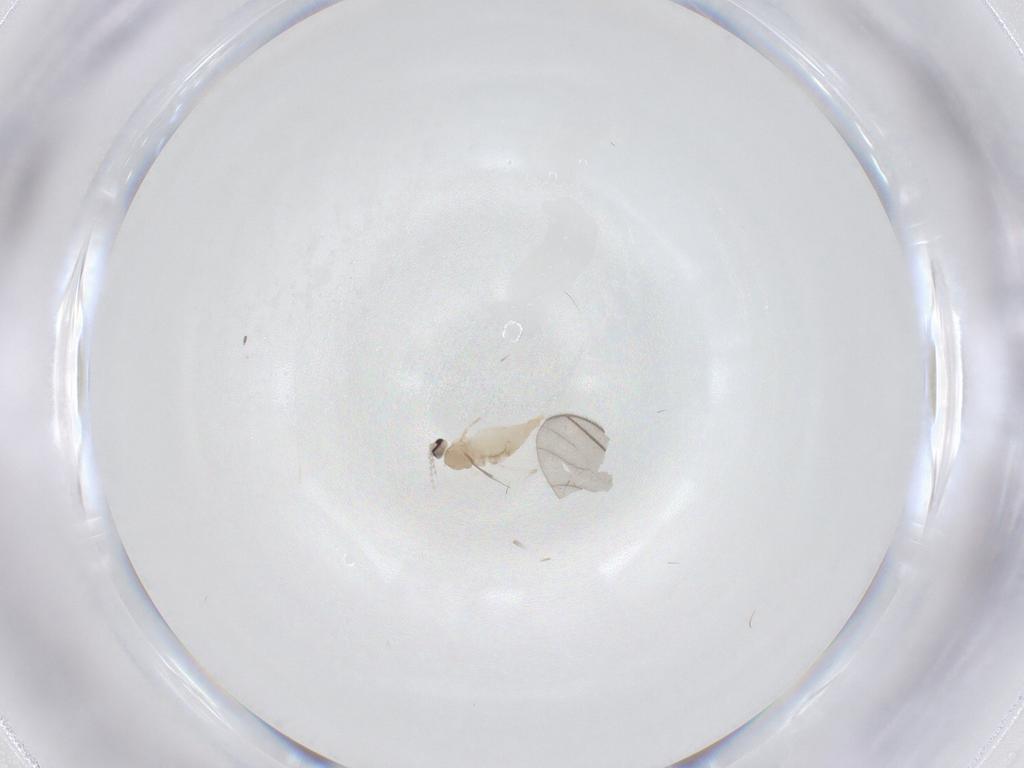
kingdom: Animalia
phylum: Arthropoda
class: Insecta
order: Diptera
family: Cecidomyiidae
